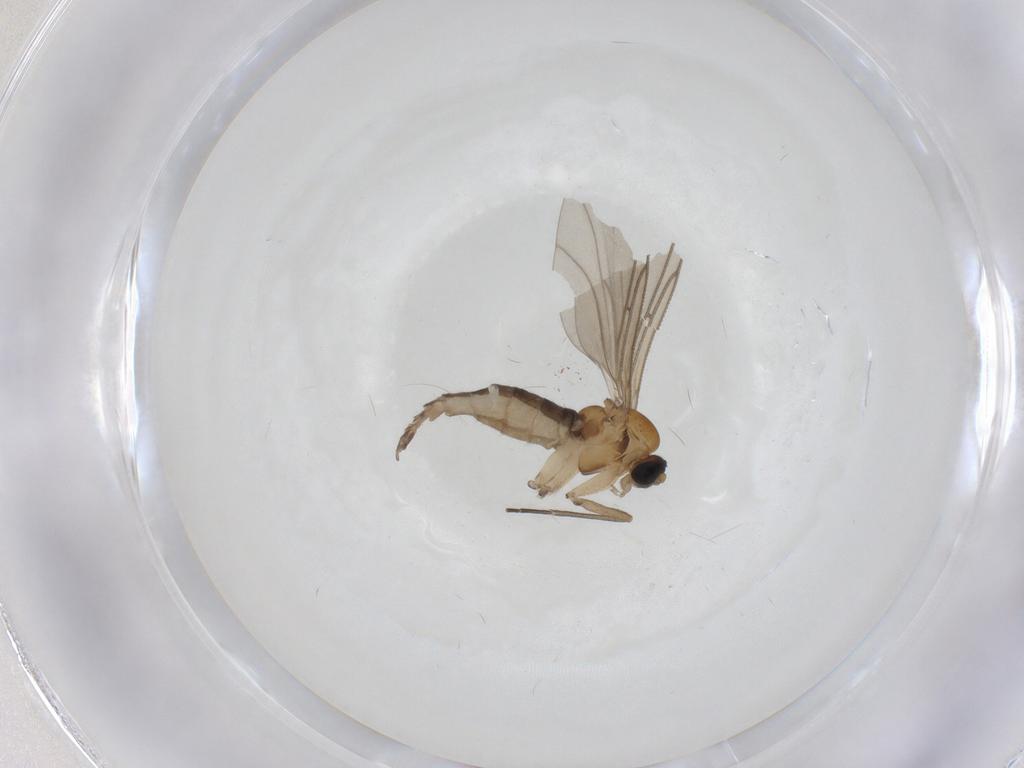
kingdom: Animalia
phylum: Arthropoda
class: Insecta
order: Diptera
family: Sciaridae
